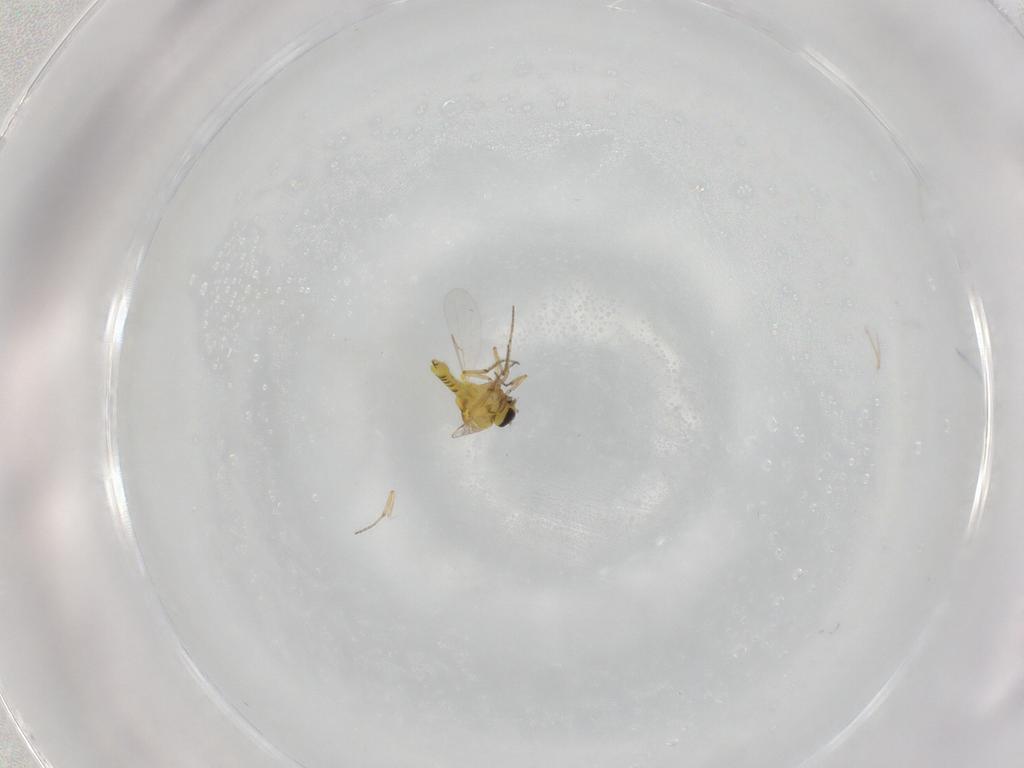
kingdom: Animalia
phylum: Arthropoda
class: Insecta
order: Diptera
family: Ceratopogonidae
